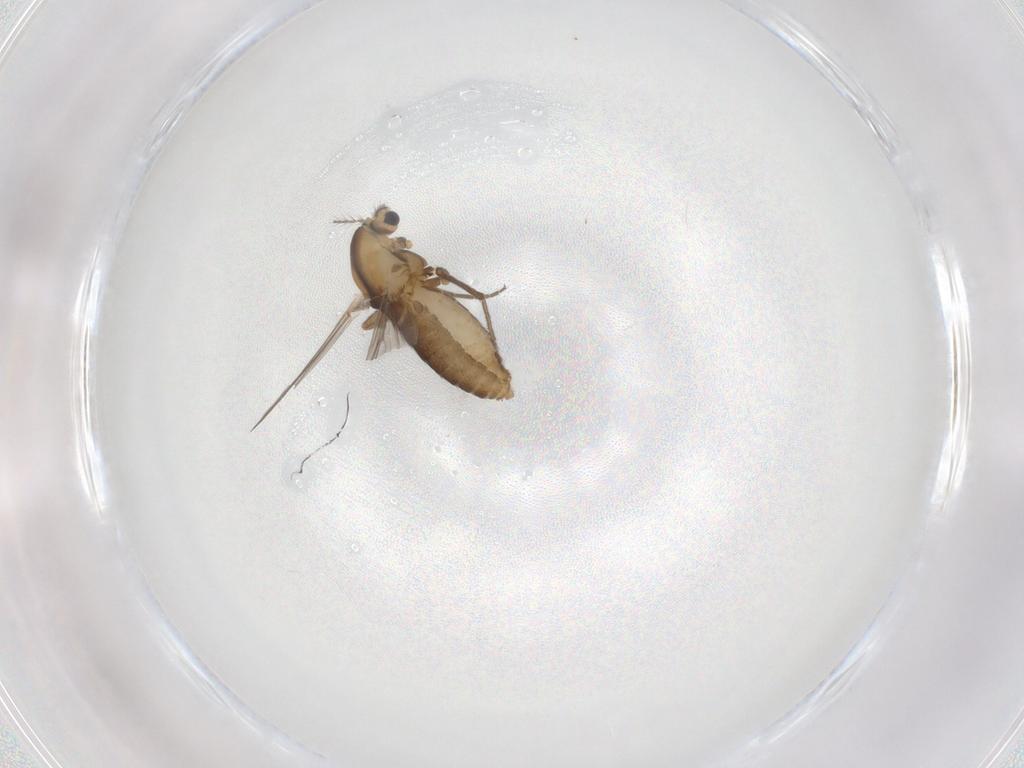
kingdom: Animalia
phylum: Arthropoda
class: Insecta
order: Diptera
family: Chironomidae
